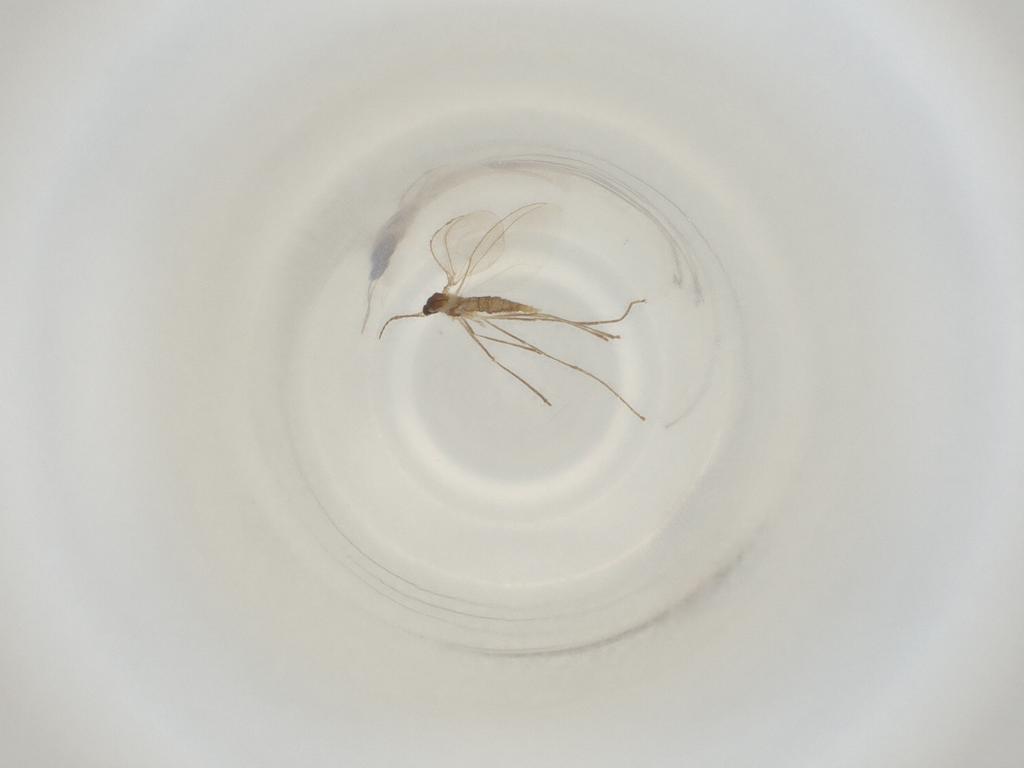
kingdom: Animalia
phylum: Arthropoda
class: Insecta
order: Diptera
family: Cecidomyiidae
